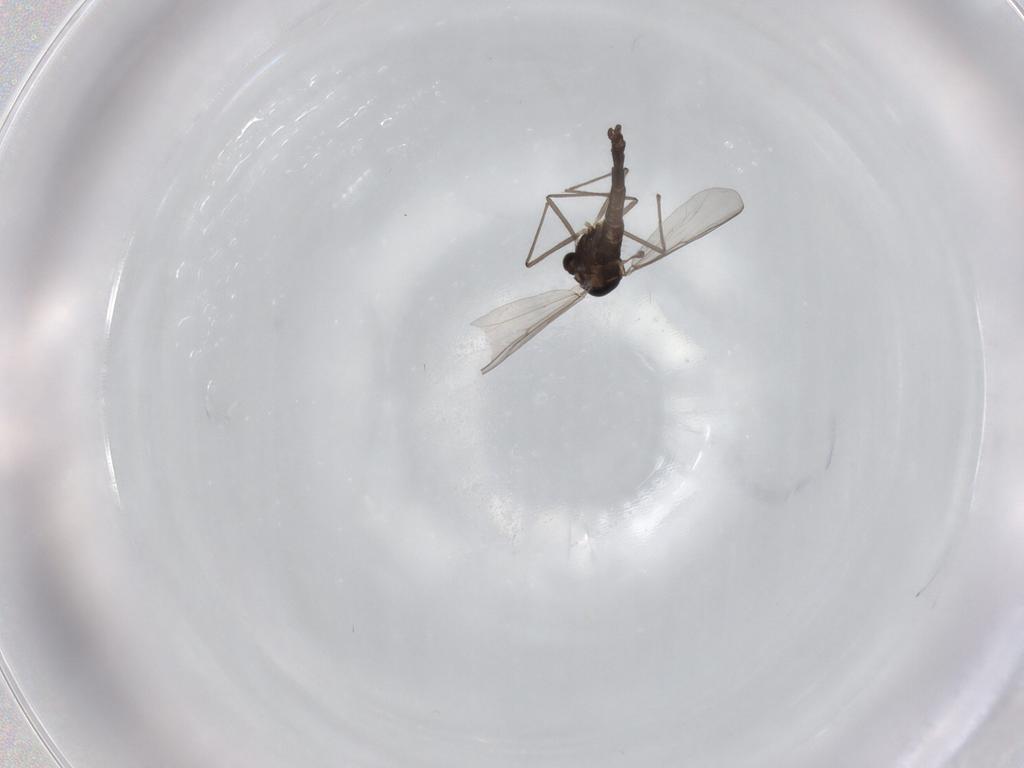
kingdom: Animalia
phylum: Arthropoda
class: Insecta
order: Diptera
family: Chironomidae
